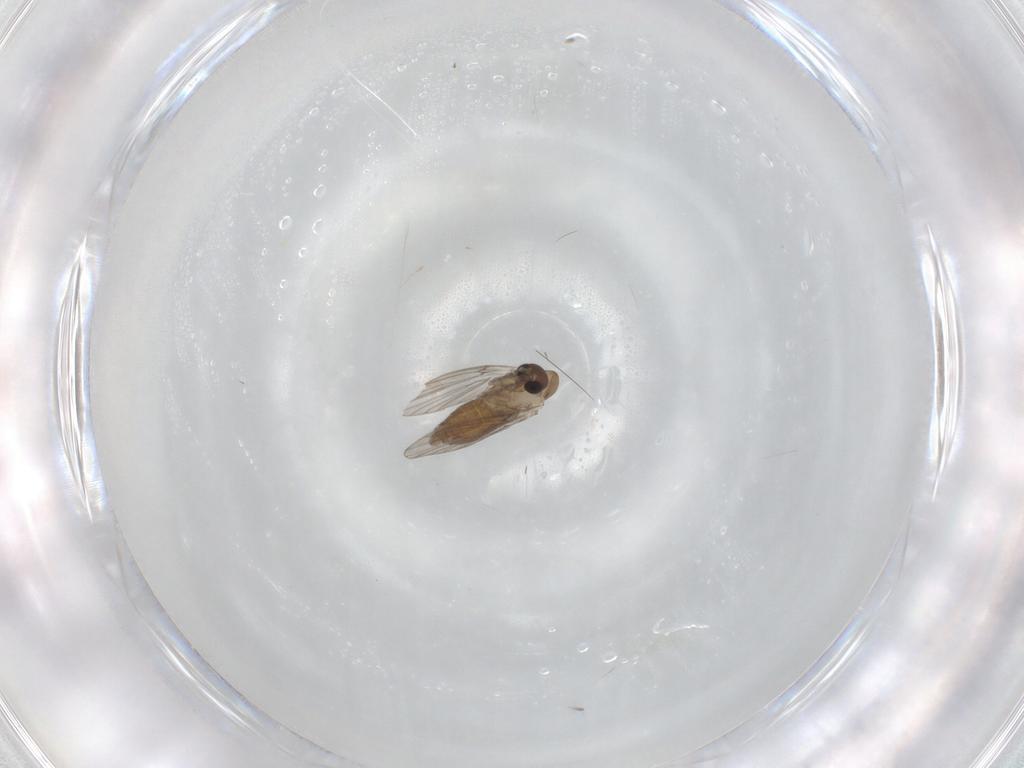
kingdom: Animalia
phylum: Arthropoda
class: Insecta
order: Diptera
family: Psychodidae
